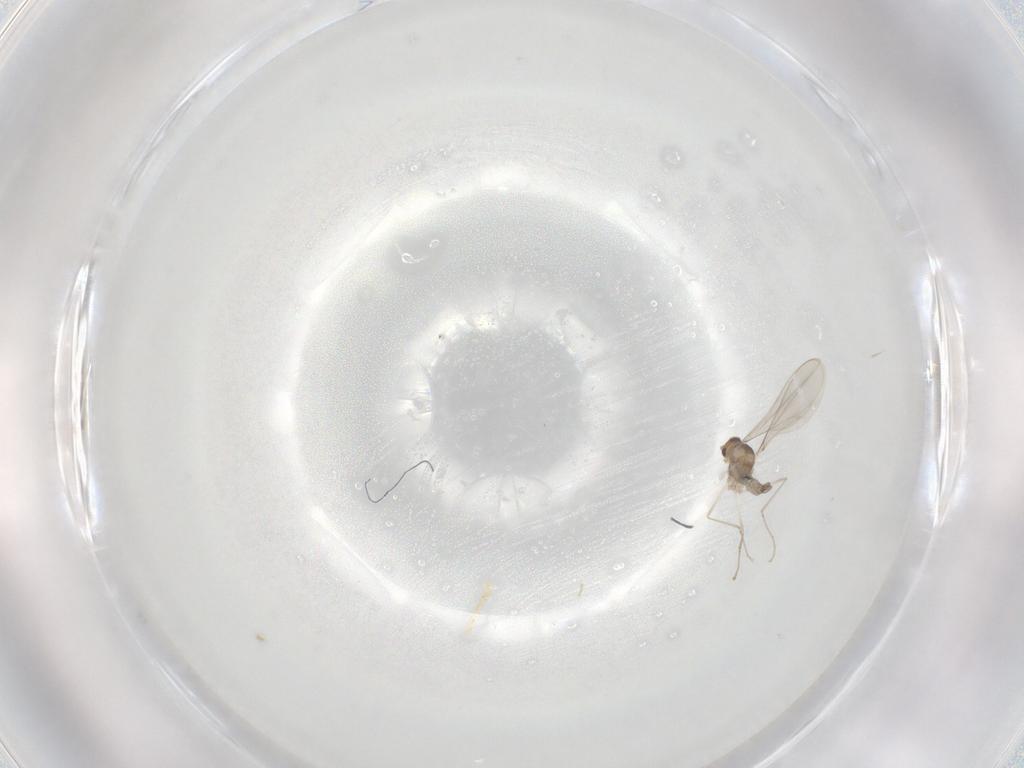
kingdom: Animalia
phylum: Arthropoda
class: Insecta
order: Diptera
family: Cecidomyiidae
